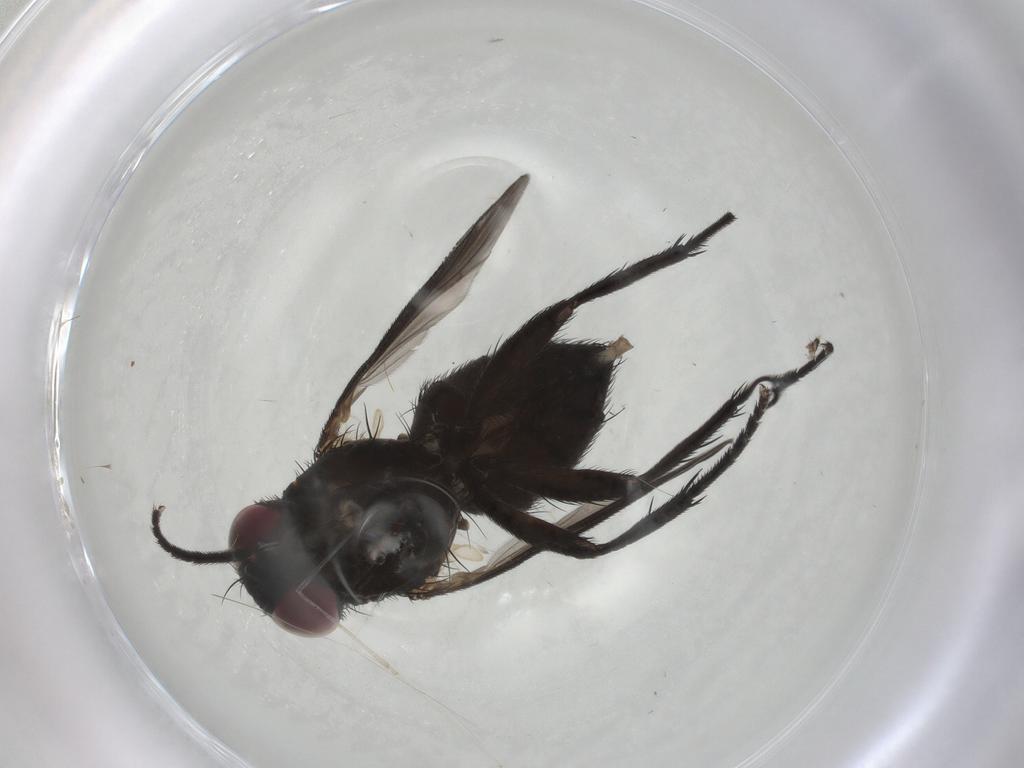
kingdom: Animalia
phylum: Arthropoda
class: Insecta
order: Diptera
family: Calliphoridae
